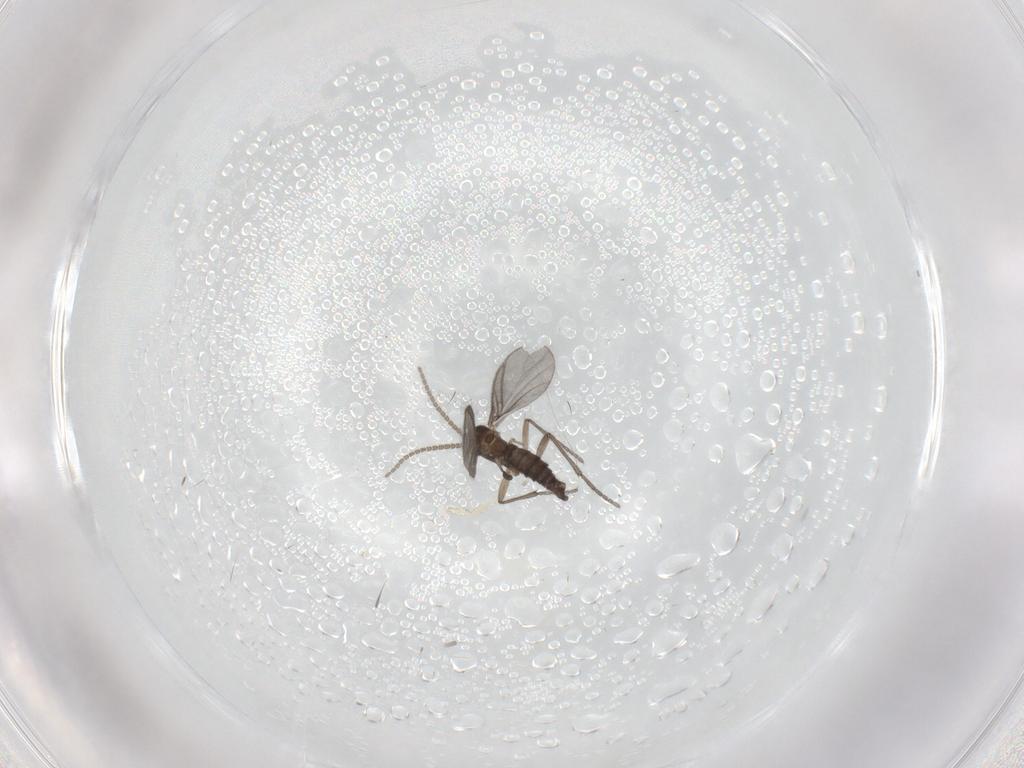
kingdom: Animalia
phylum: Arthropoda
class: Insecta
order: Diptera
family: Sciaridae
